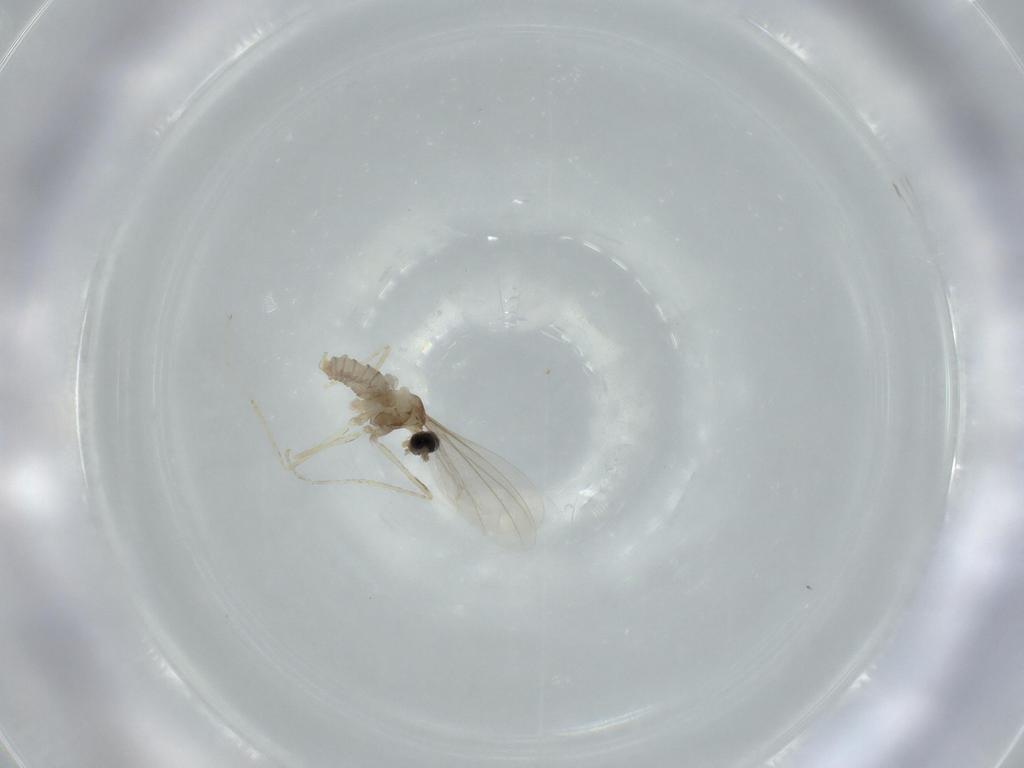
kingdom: Animalia
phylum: Arthropoda
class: Insecta
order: Diptera
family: Cecidomyiidae
